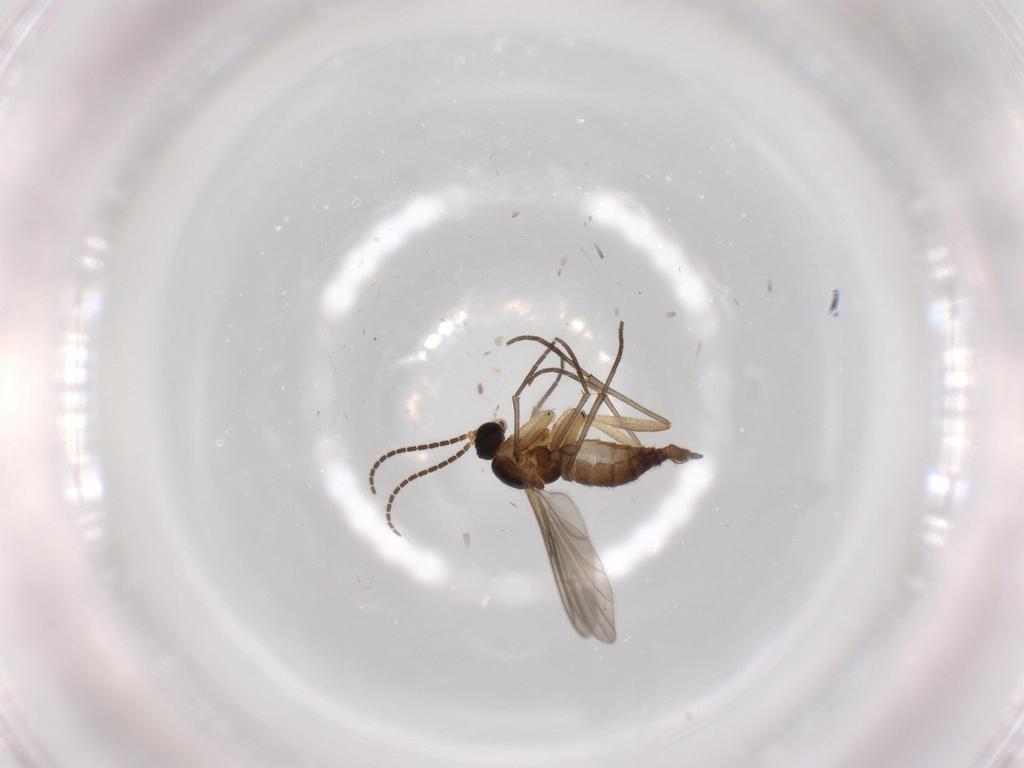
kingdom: Animalia
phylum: Arthropoda
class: Insecta
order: Diptera
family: Sciaridae
